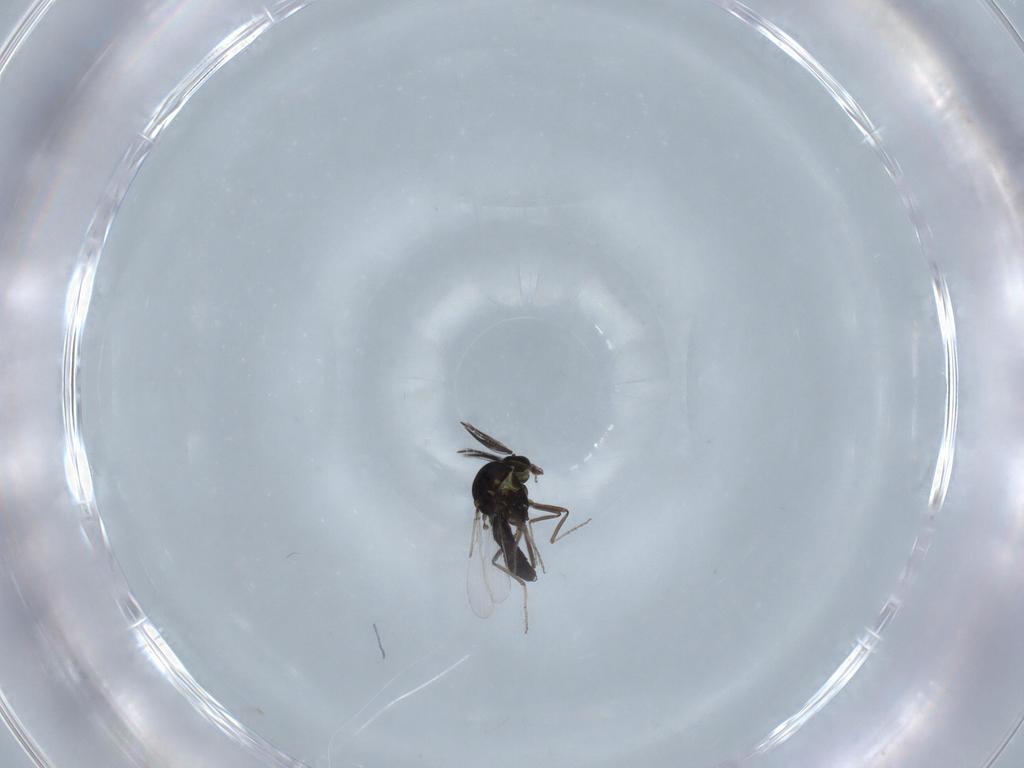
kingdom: Animalia
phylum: Arthropoda
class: Insecta
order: Diptera
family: Ceratopogonidae
